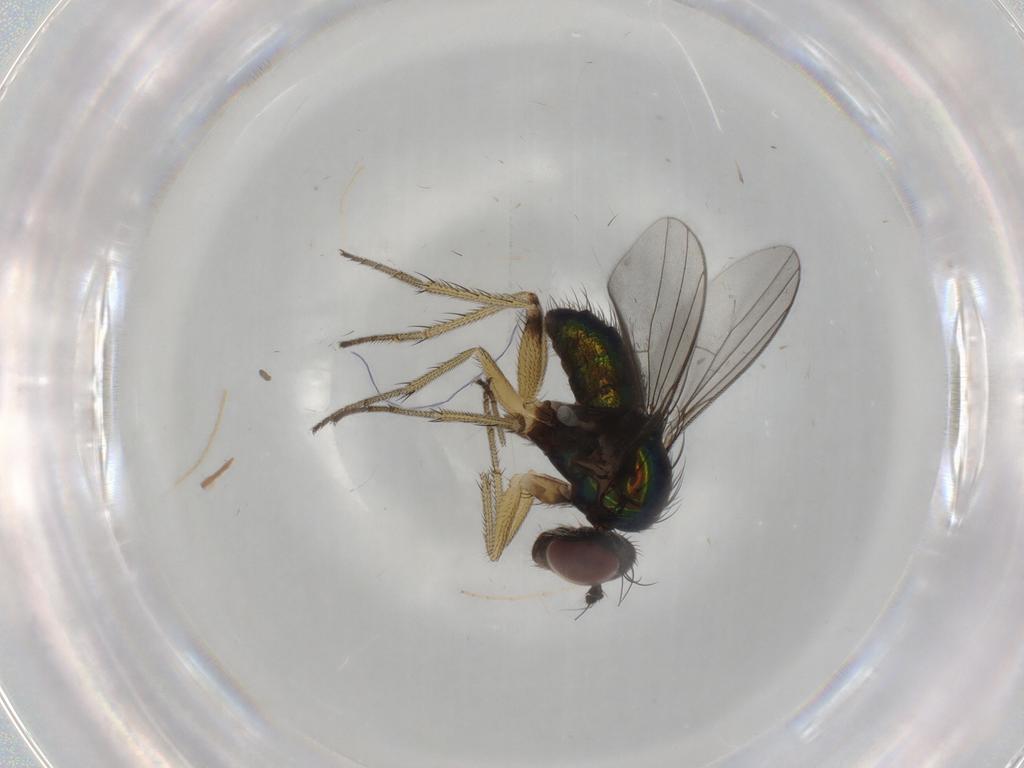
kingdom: Animalia
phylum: Arthropoda
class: Insecta
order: Diptera
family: Dolichopodidae
